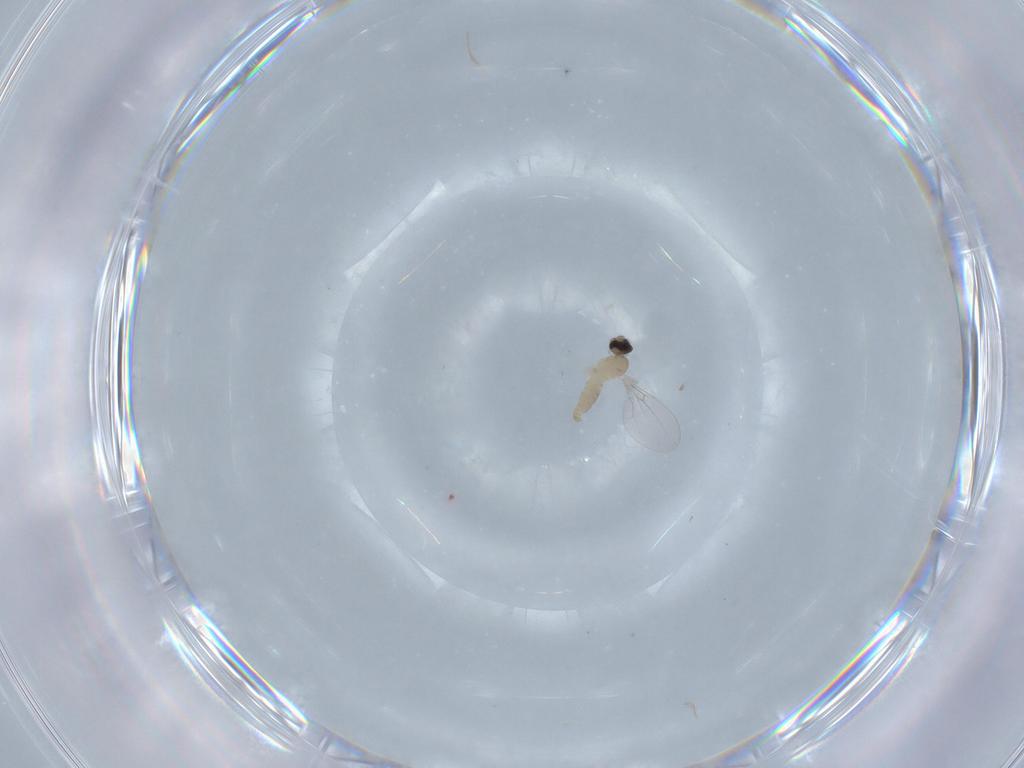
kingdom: Animalia
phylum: Arthropoda
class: Insecta
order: Diptera
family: Cecidomyiidae
